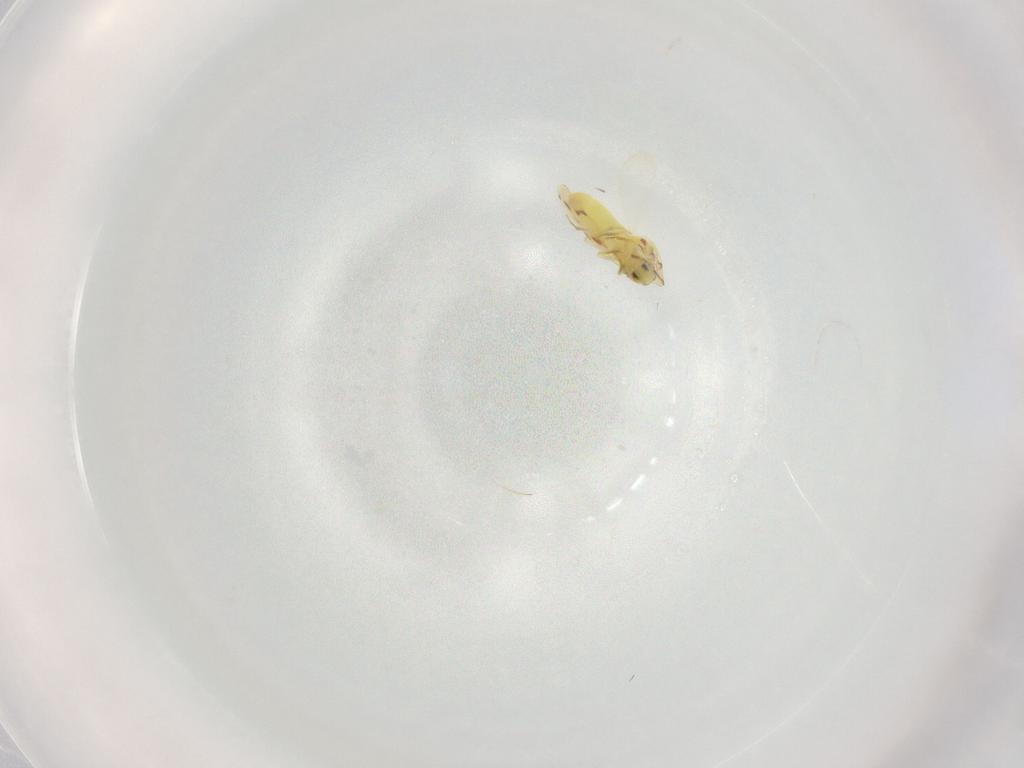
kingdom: Animalia
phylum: Arthropoda
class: Insecta
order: Hemiptera
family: Aleyrodidae
